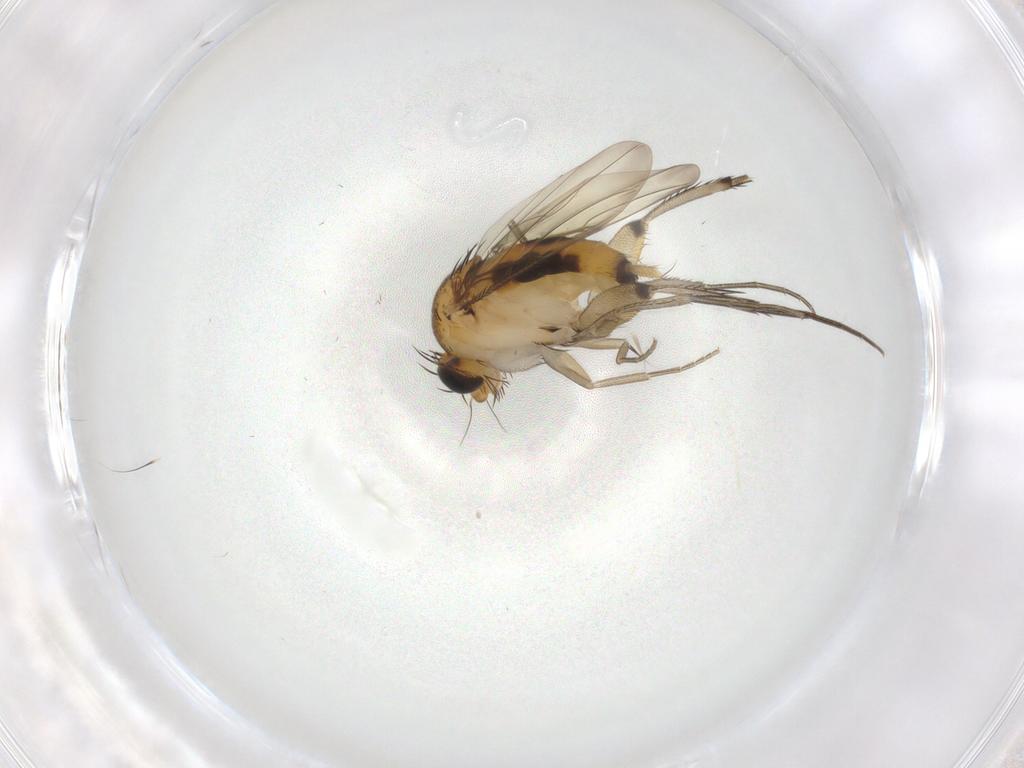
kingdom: Animalia
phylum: Arthropoda
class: Insecta
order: Diptera
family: Phoridae
